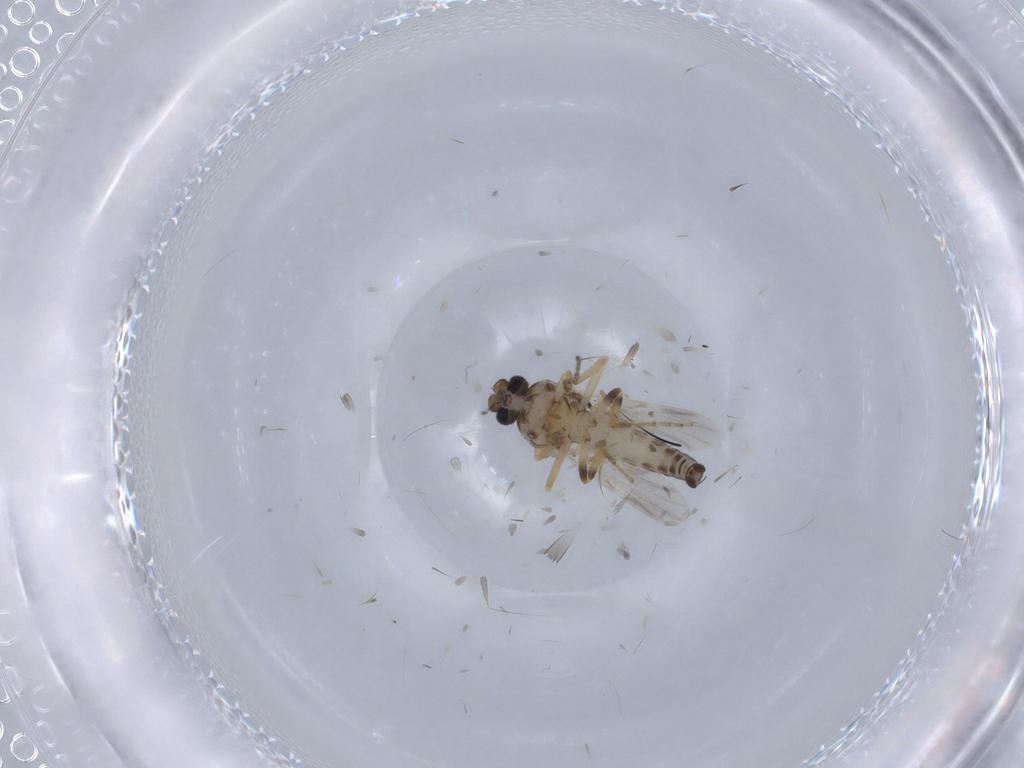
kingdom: Animalia
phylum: Arthropoda
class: Insecta
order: Diptera
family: Ceratopogonidae
